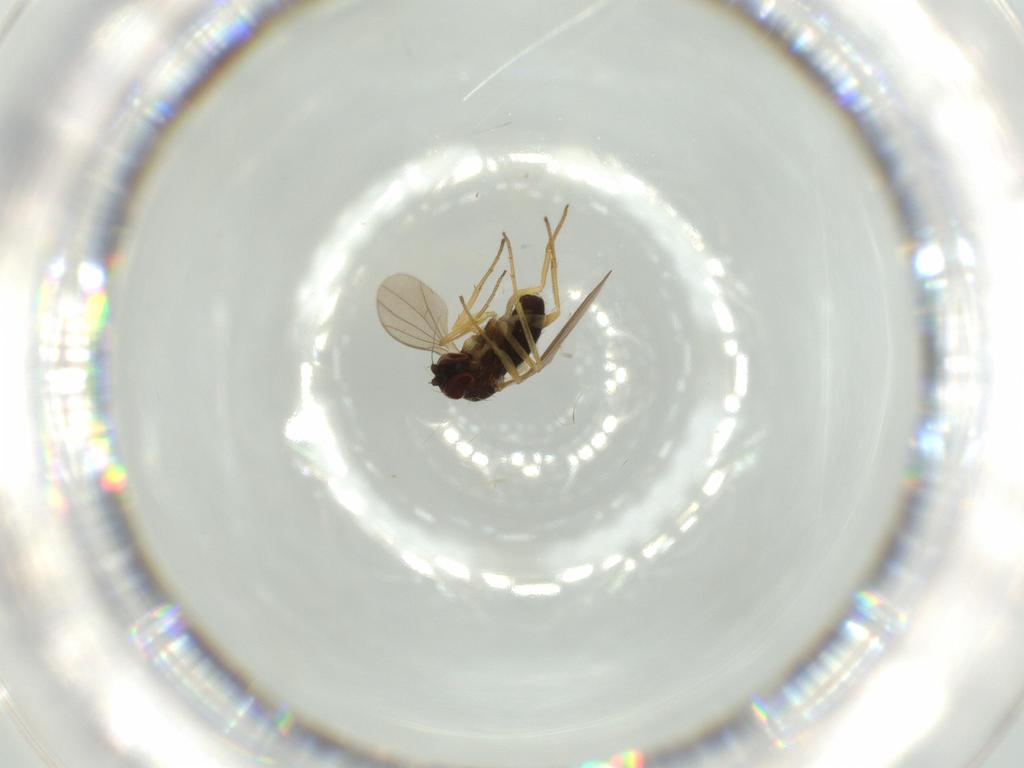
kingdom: Animalia
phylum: Arthropoda
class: Insecta
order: Diptera
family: Dolichopodidae
